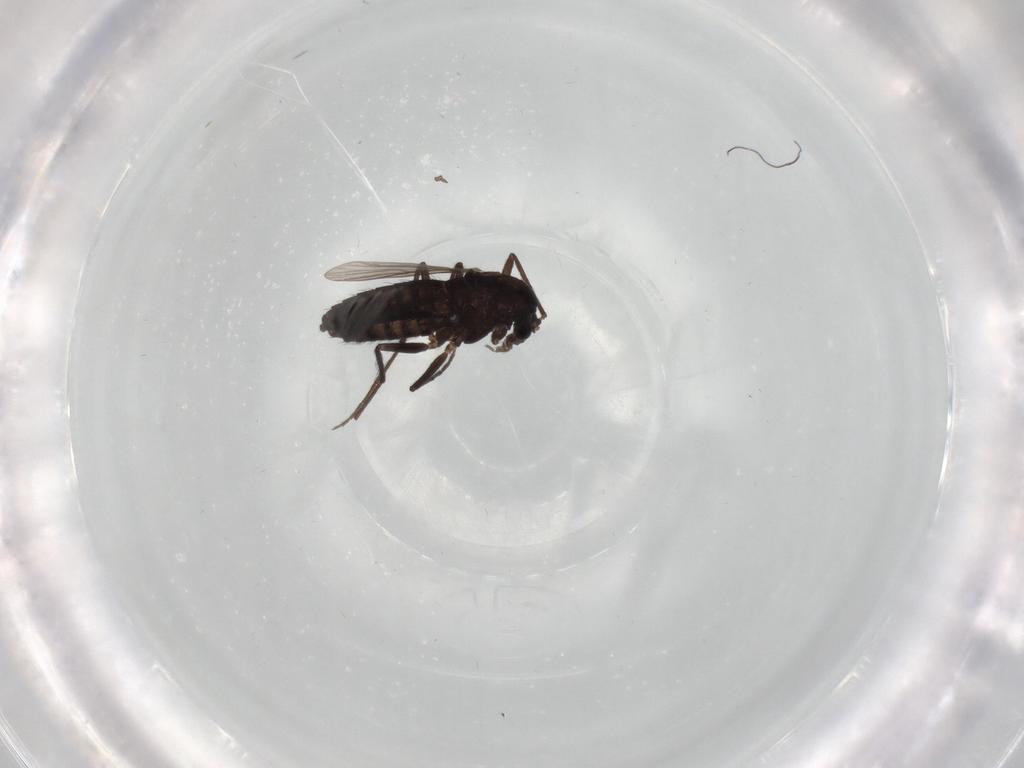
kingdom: Animalia
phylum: Arthropoda
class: Insecta
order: Diptera
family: Chironomidae
